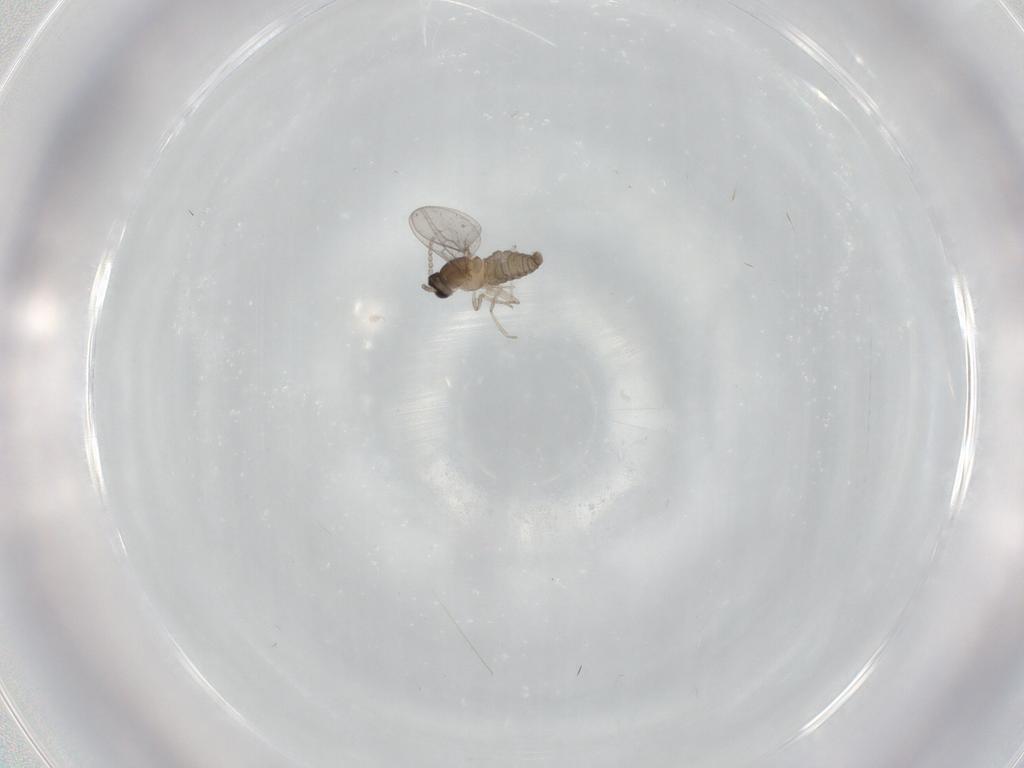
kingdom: Animalia
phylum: Arthropoda
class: Insecta
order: Diptera
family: Cecidomyiidae
